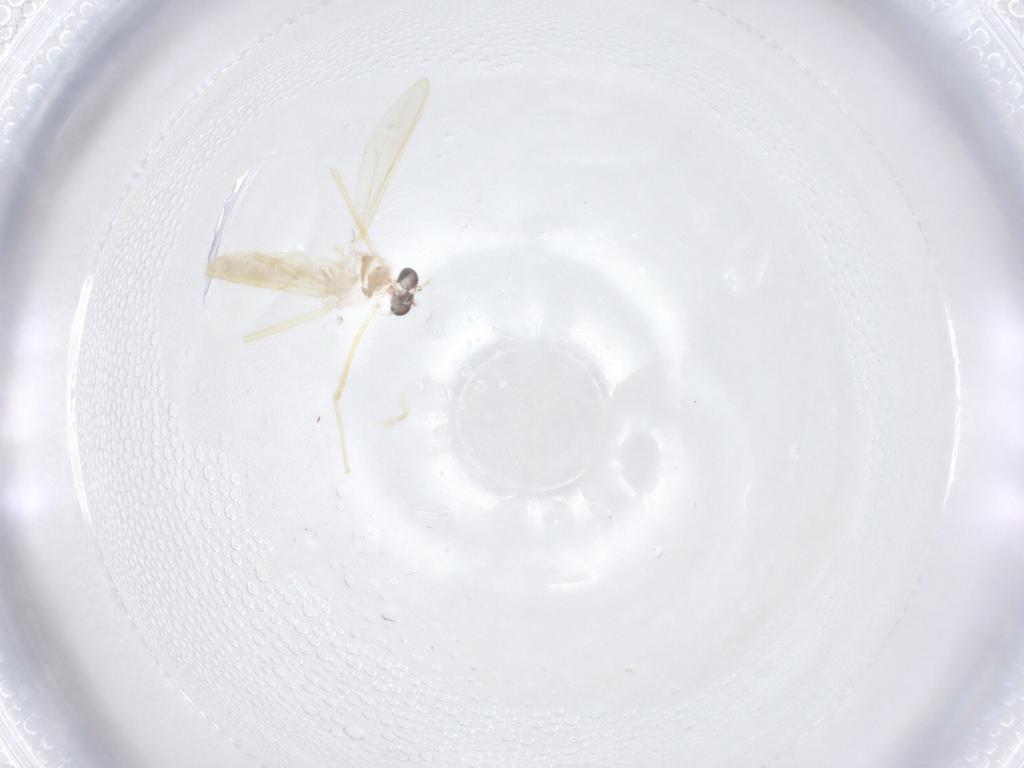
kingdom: Animalia
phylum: Arthropoda
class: Insecta
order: Diptera
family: Chironomidae
